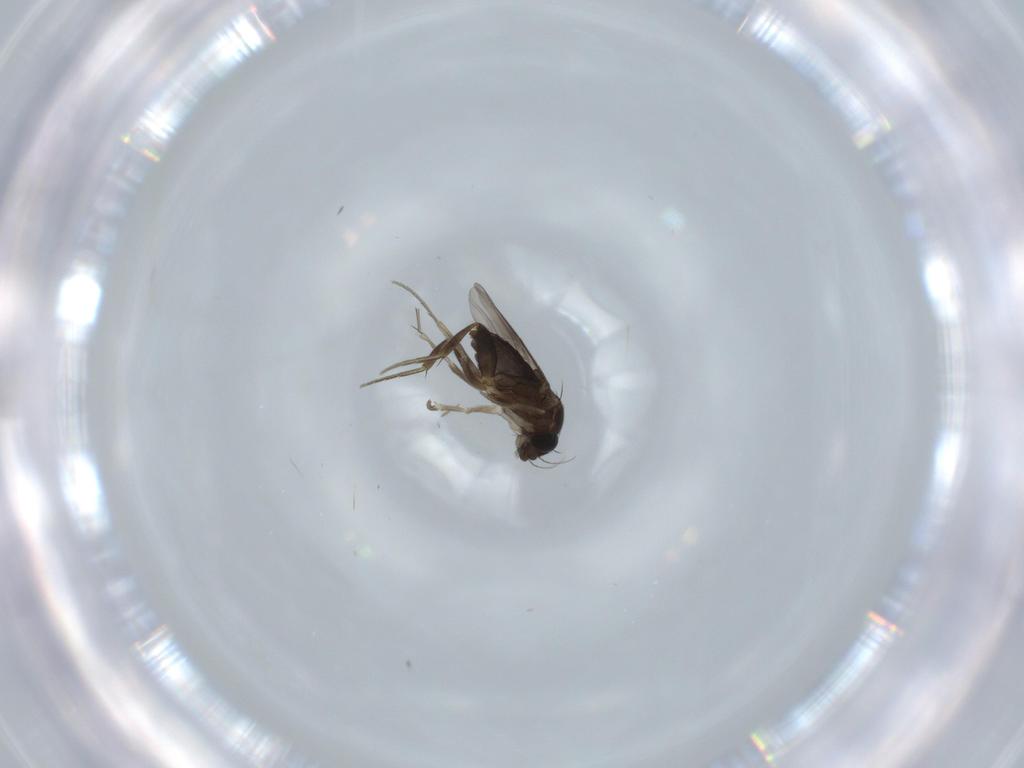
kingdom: Animalia
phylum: Arthropoda
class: Insecta
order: Diptera
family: Phoridae
